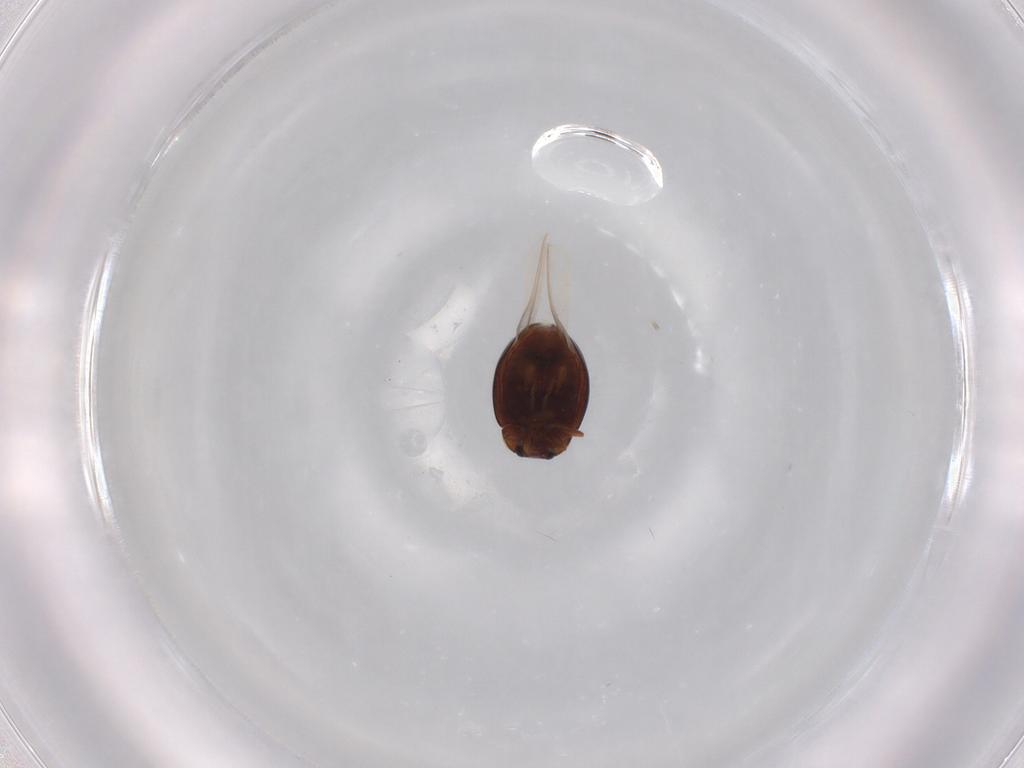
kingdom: Animalia
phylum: Arthropoda
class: Insecta
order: Coleoptera
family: Coccinellidae
